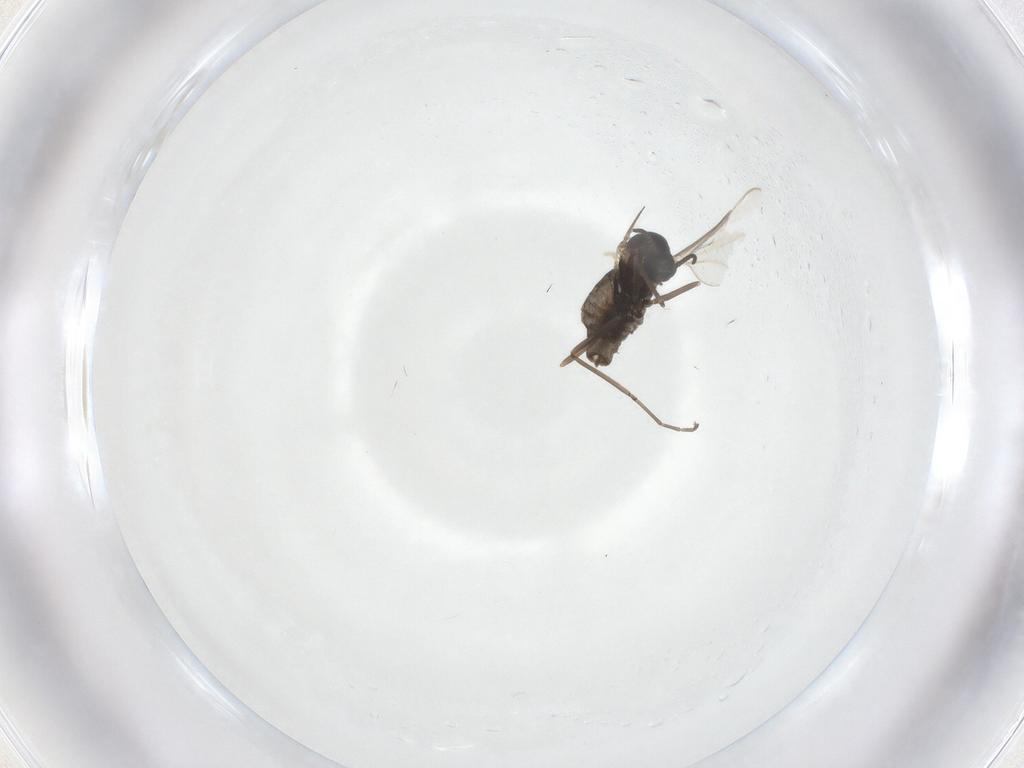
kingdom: Animalia
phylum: Arthropoda
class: Insecta
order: Diptera
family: Cecidomyiidae
